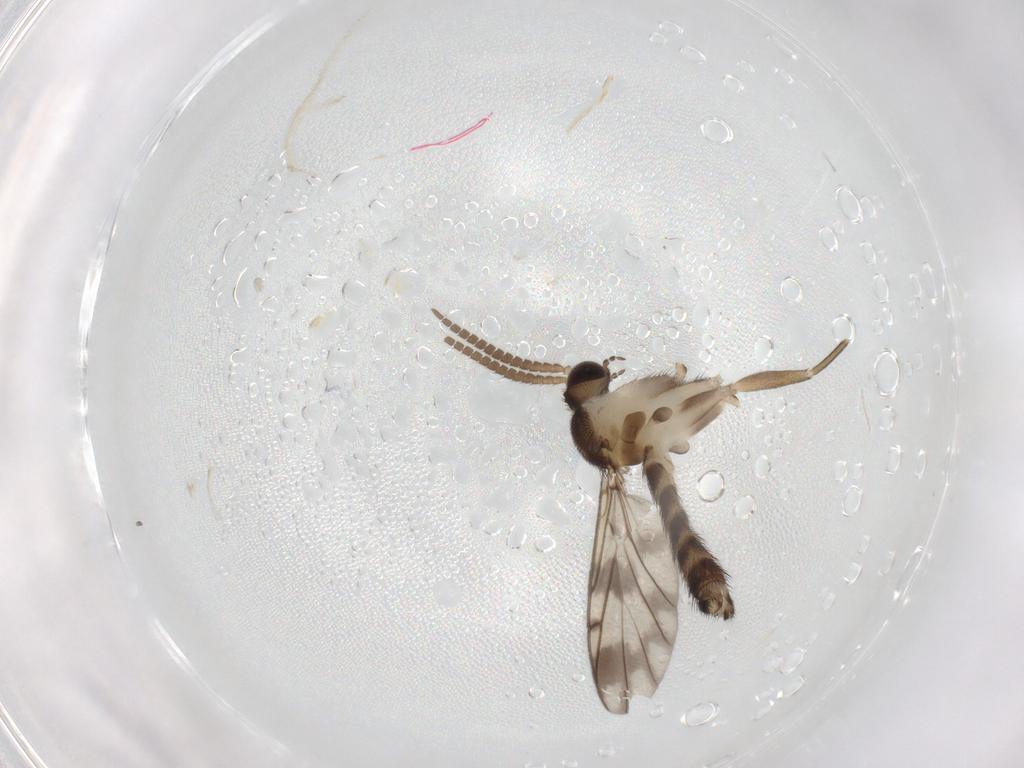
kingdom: Animalia
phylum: Arthropoda
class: Insecta
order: Diptera
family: Keroplatidae
